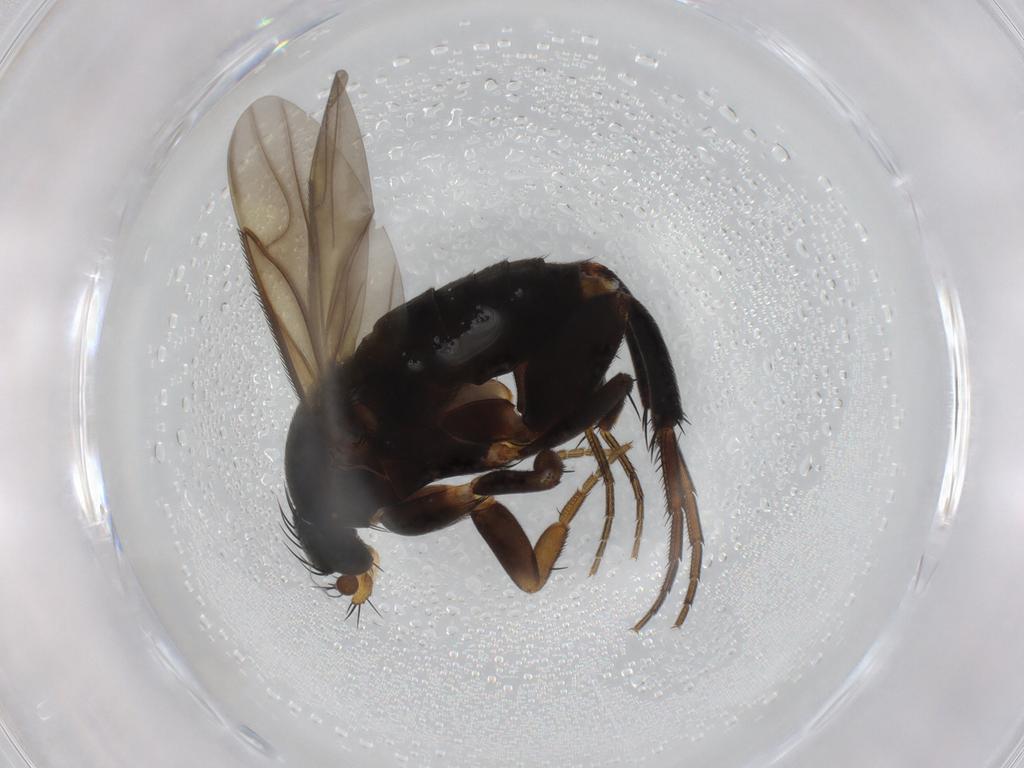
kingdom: Animalia
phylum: Arthropoda
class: Insecta
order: Diptera
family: Phoridae
